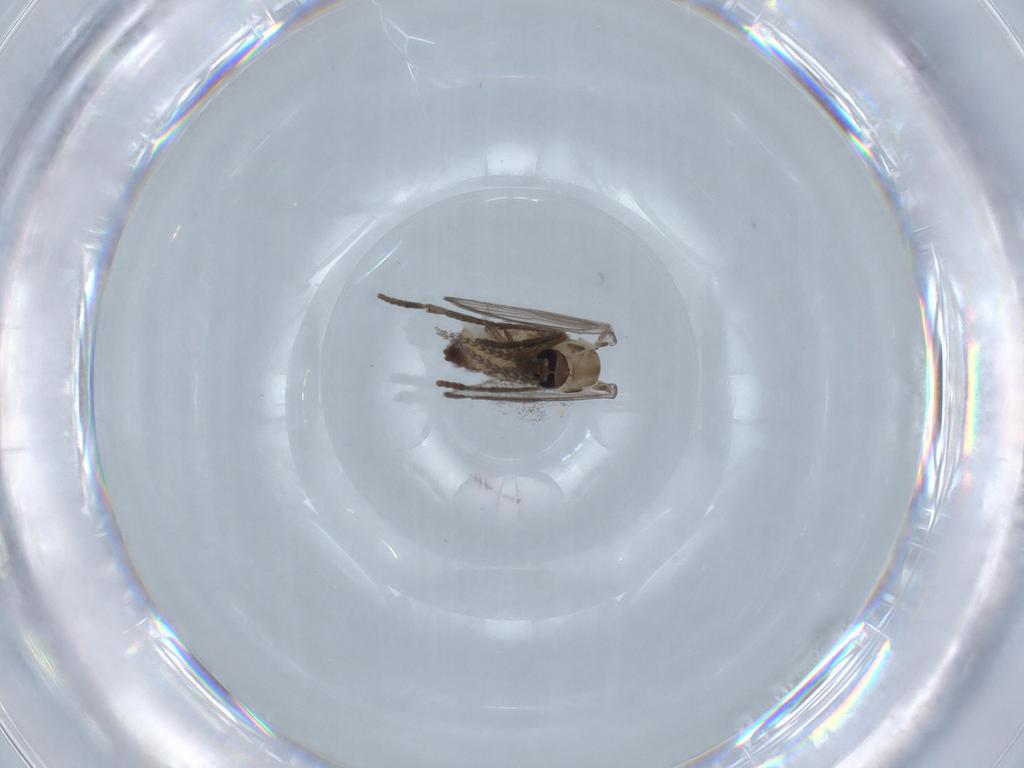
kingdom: Animalia
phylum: Arthropoda
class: Insecta
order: Diptera
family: Psychodidae
